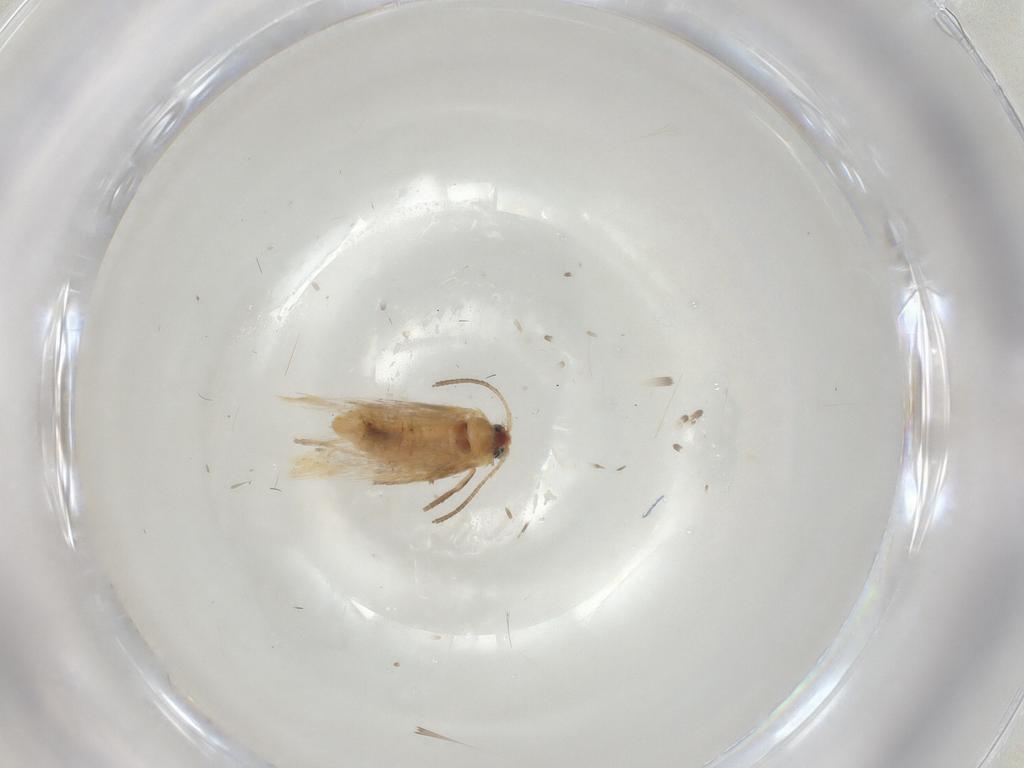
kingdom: Animalia
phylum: Arthropoda
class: Insecta
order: Lepidoptera
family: Nepticulidae
